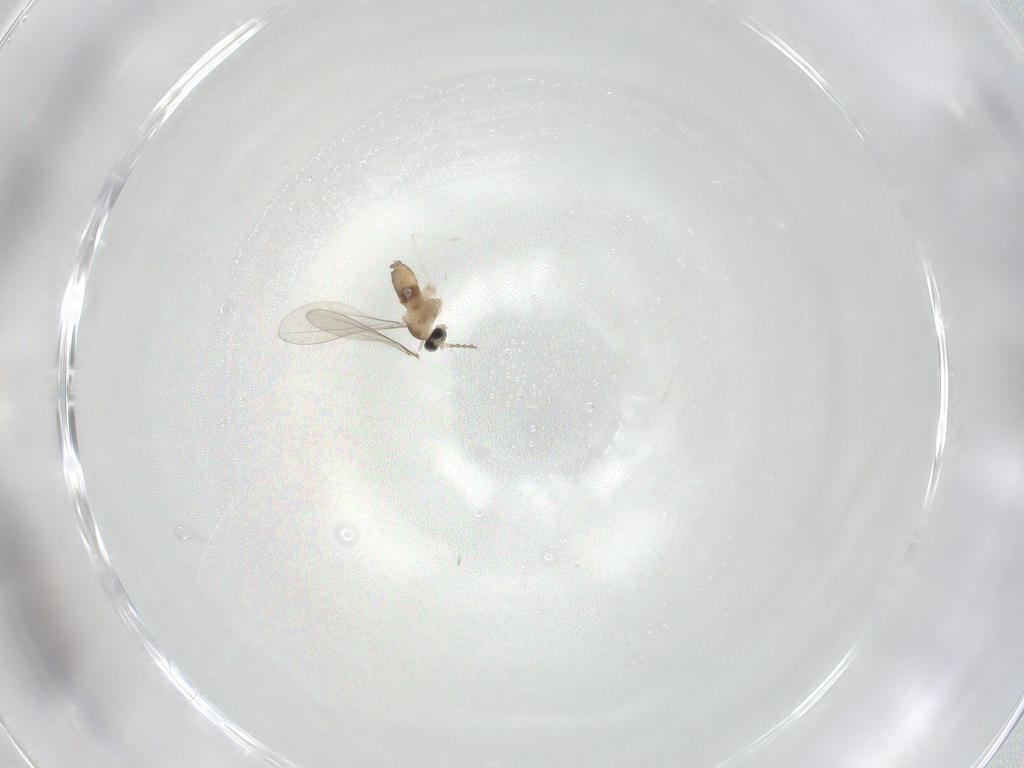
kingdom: Animalia
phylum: Arthropoda
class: Insecta
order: Diptera
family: Cecidomyiidae
